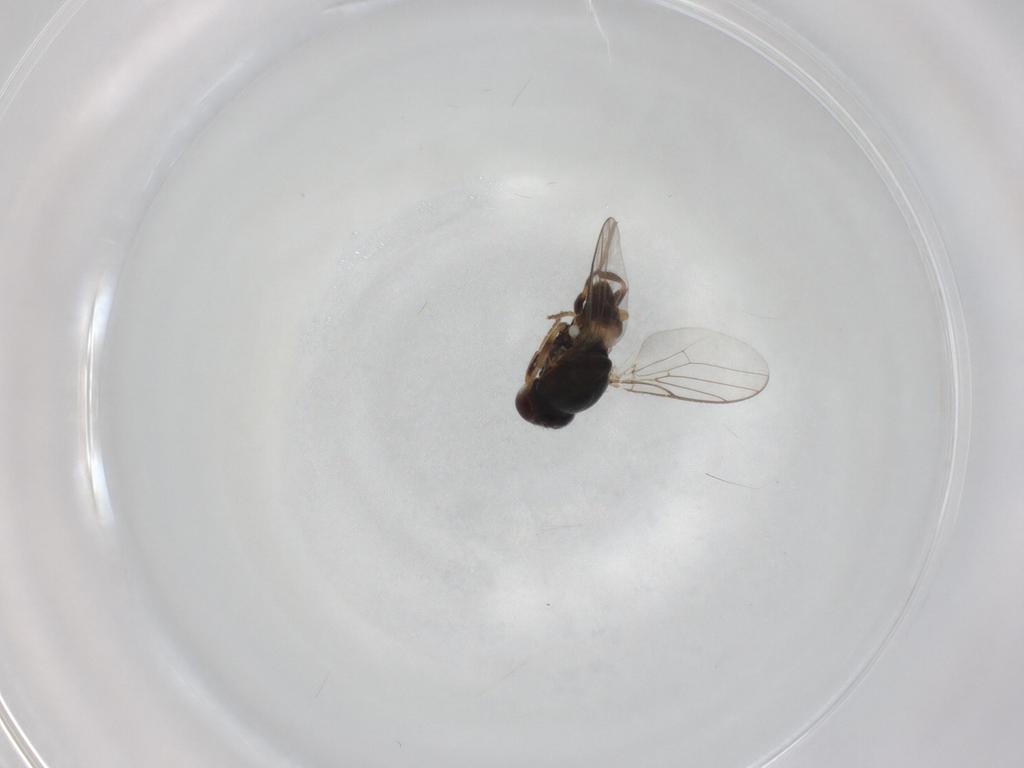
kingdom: Animalia
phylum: Arthropoda
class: Insecta
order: Diptera
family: Chloropidae
